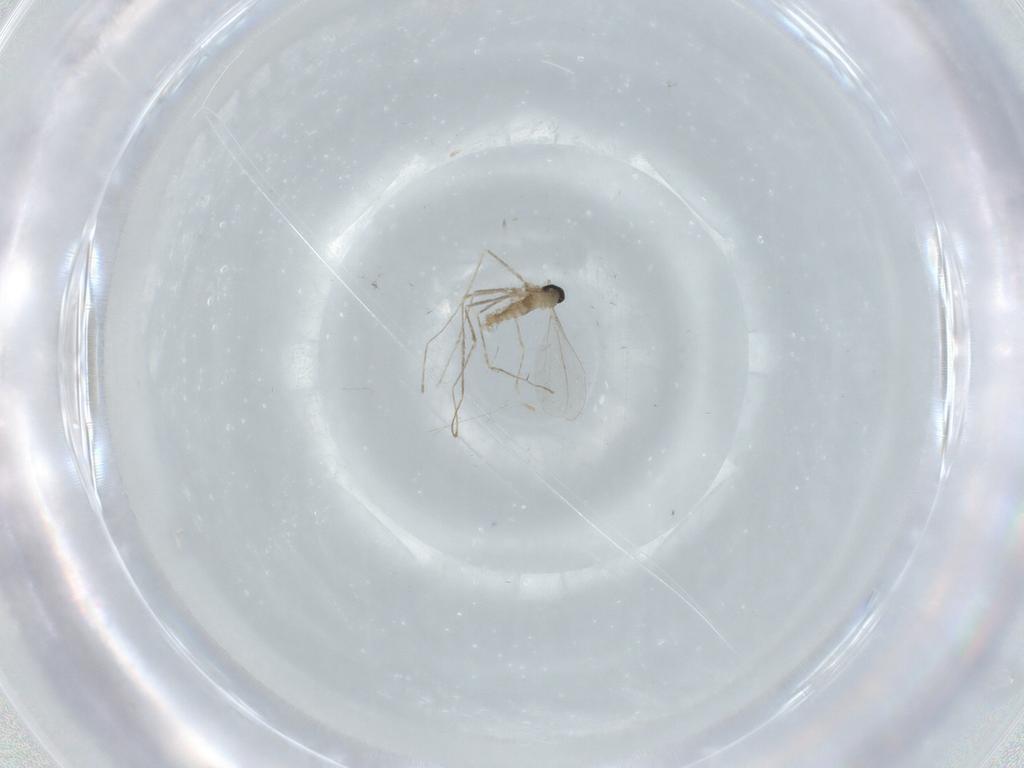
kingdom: Animalia
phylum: Arthropoda
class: Insecta
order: Diptera
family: Cecidomyiidae
